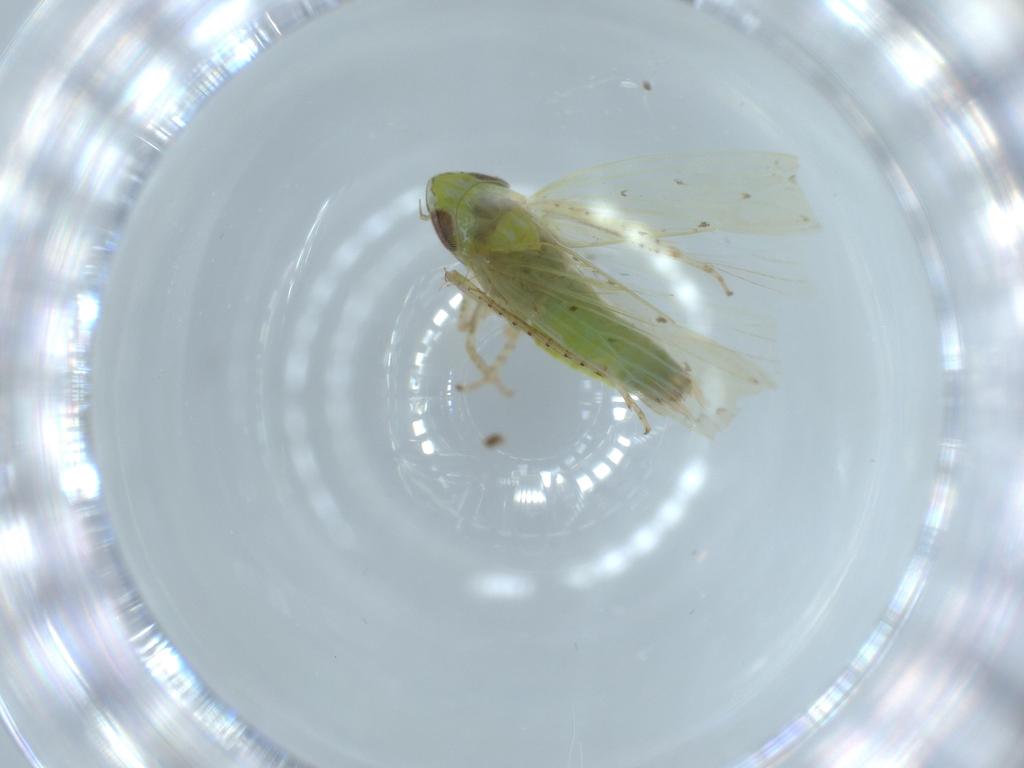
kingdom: Animalia
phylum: Arthropoda
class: Insecta
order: Hemiptera
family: Cicadellidae
